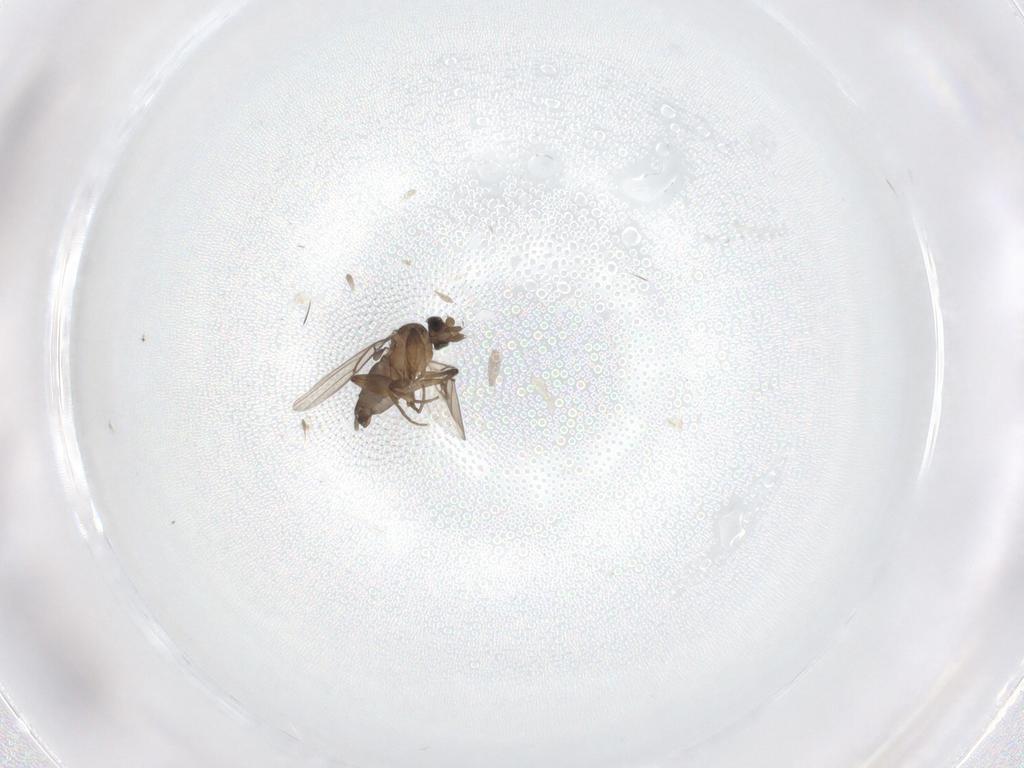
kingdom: Animalia
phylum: Arthropoda
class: Insecta
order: Diptera
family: Phoridae
